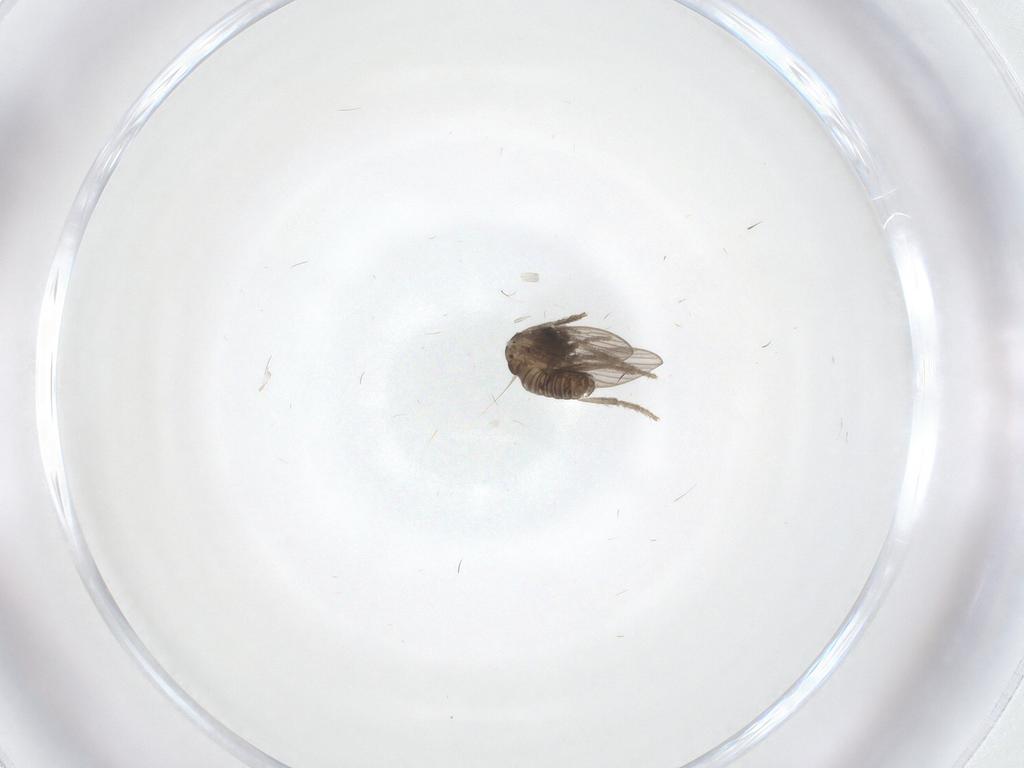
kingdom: Animalia
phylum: Arthropoda
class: Insecta
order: Diptera
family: Psychodidae
